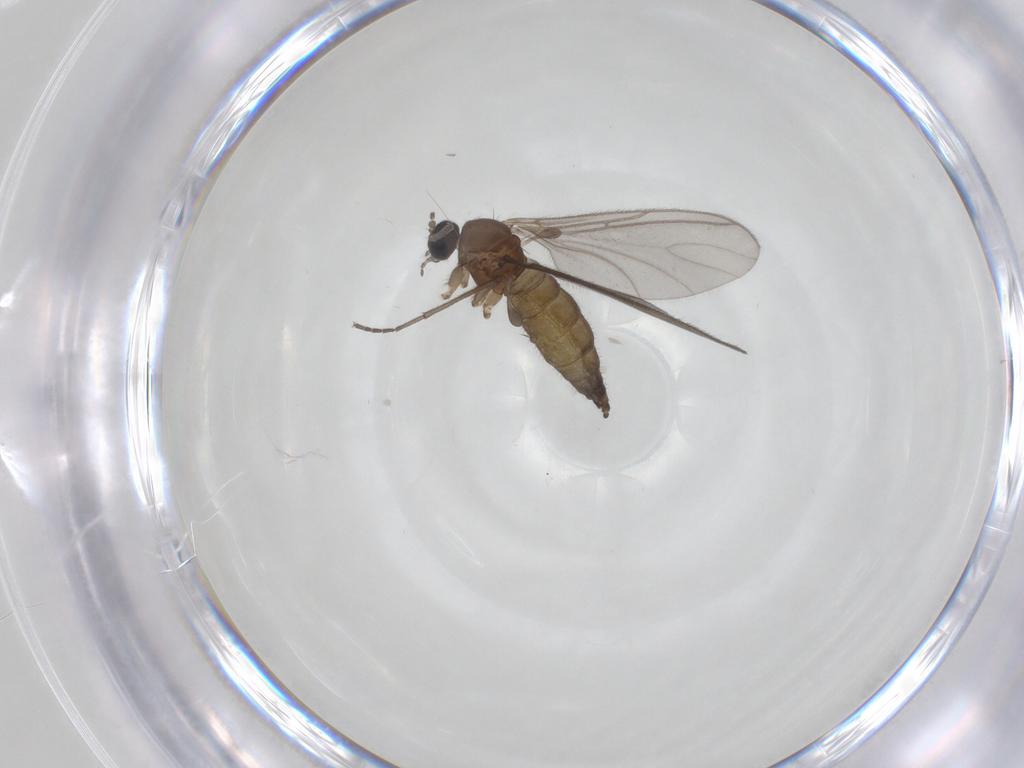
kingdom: Animalia
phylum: Arthropoda
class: Insecta
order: Diptera
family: Sciaridae
